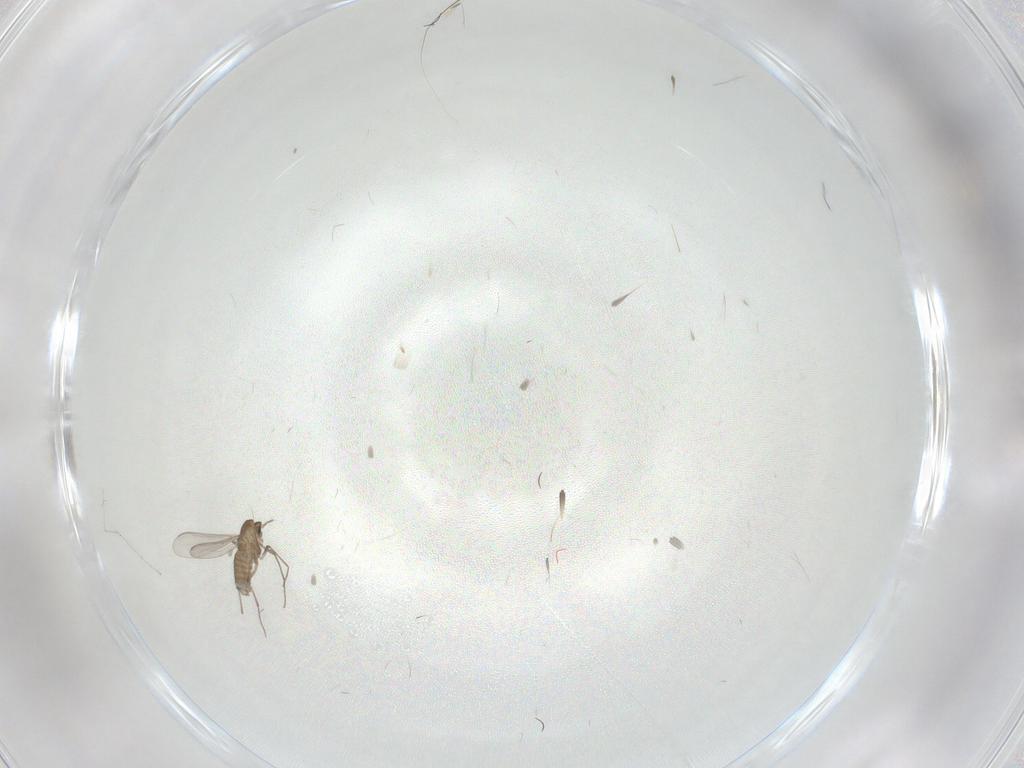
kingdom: Animalia
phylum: Arthropoda
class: Insecta
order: Diptera
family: Chironomidae
